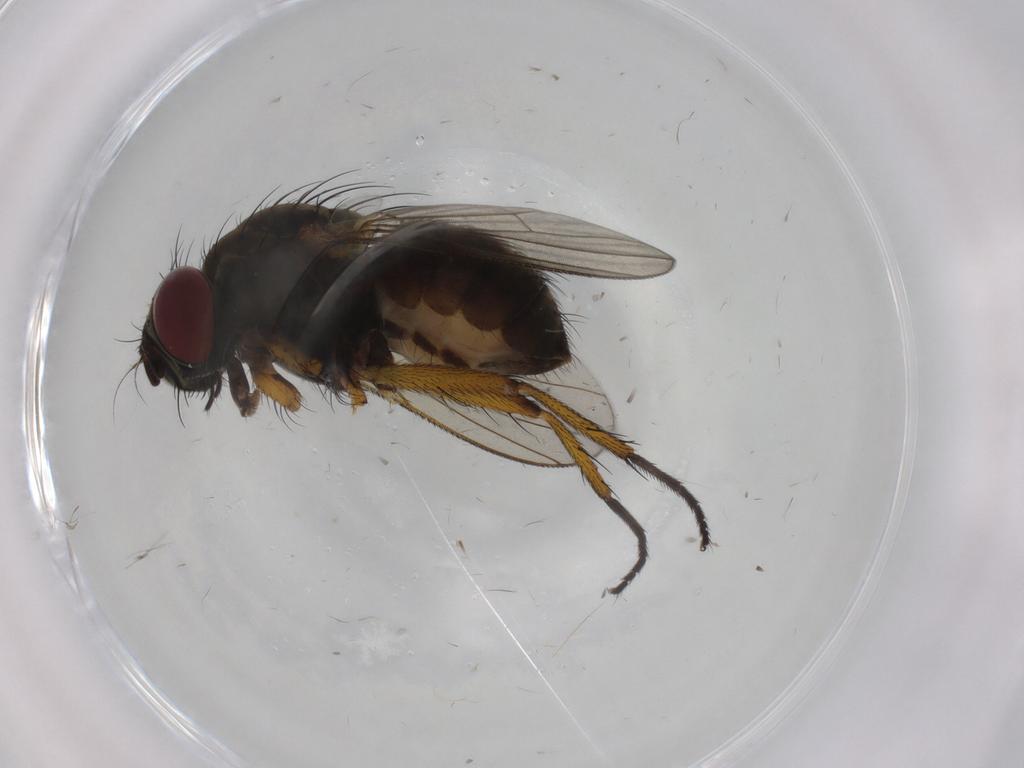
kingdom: Animalia
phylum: Arthropoda
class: Insecta
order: Diptera
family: Muscidae
